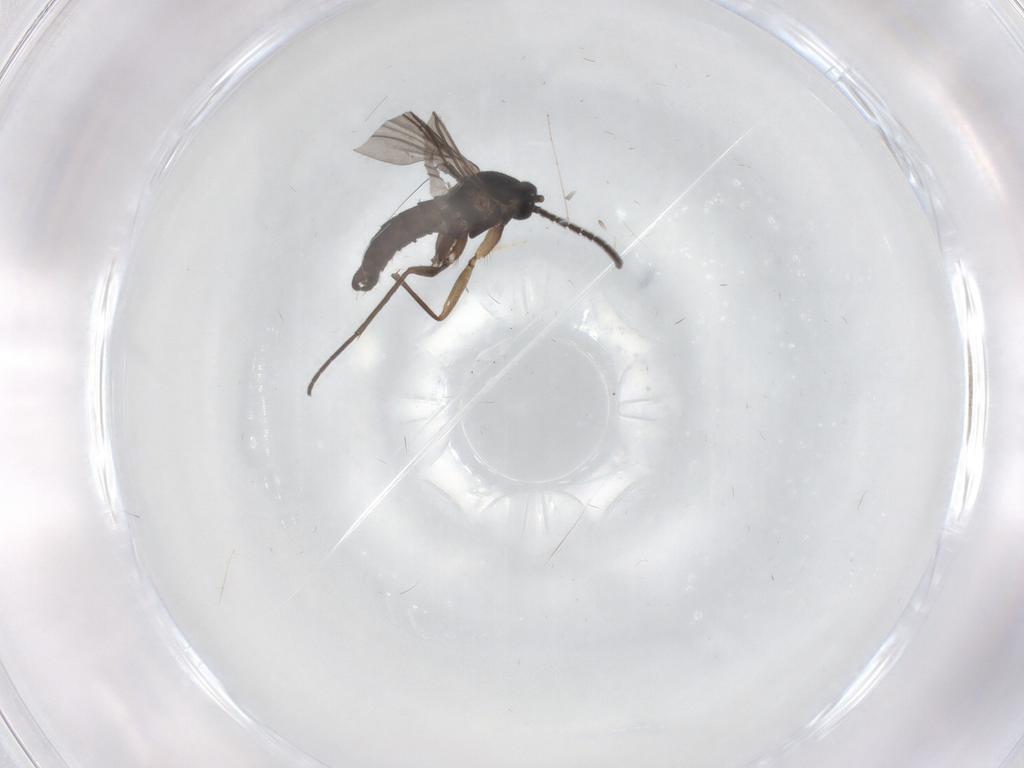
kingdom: Animalia
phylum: Arthropoda
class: Insecta
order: Diptera
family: Sciaridae
